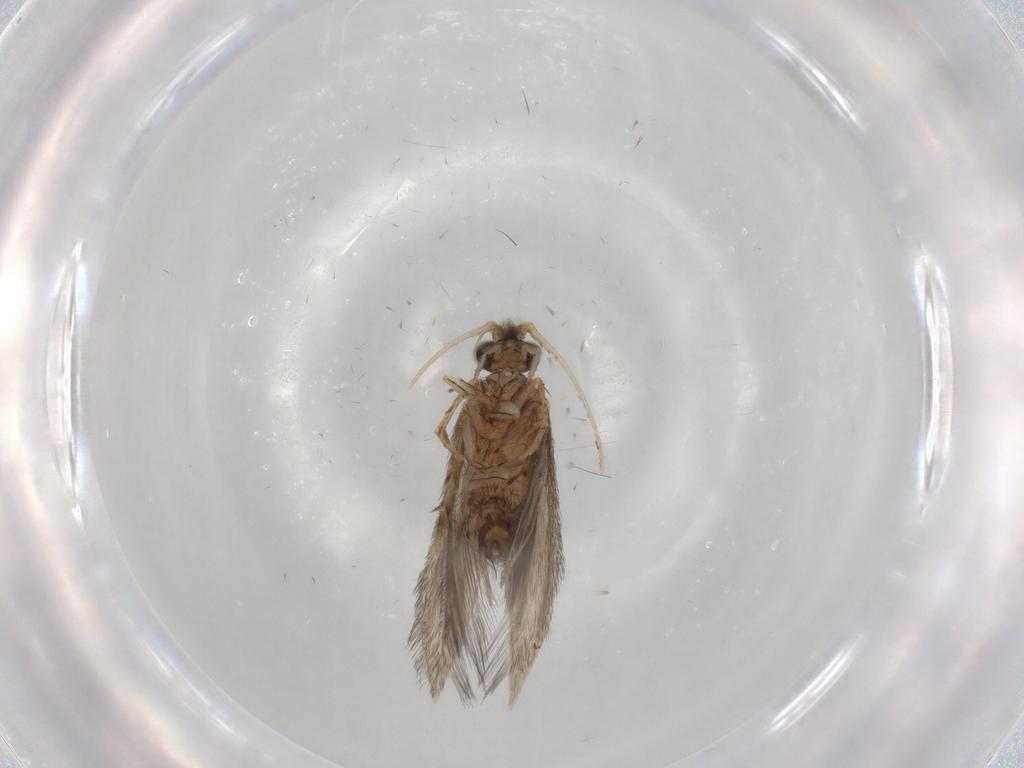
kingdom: Animalia
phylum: Arthropoda
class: Insecta
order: Trichoptera
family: Hydroptilidae
